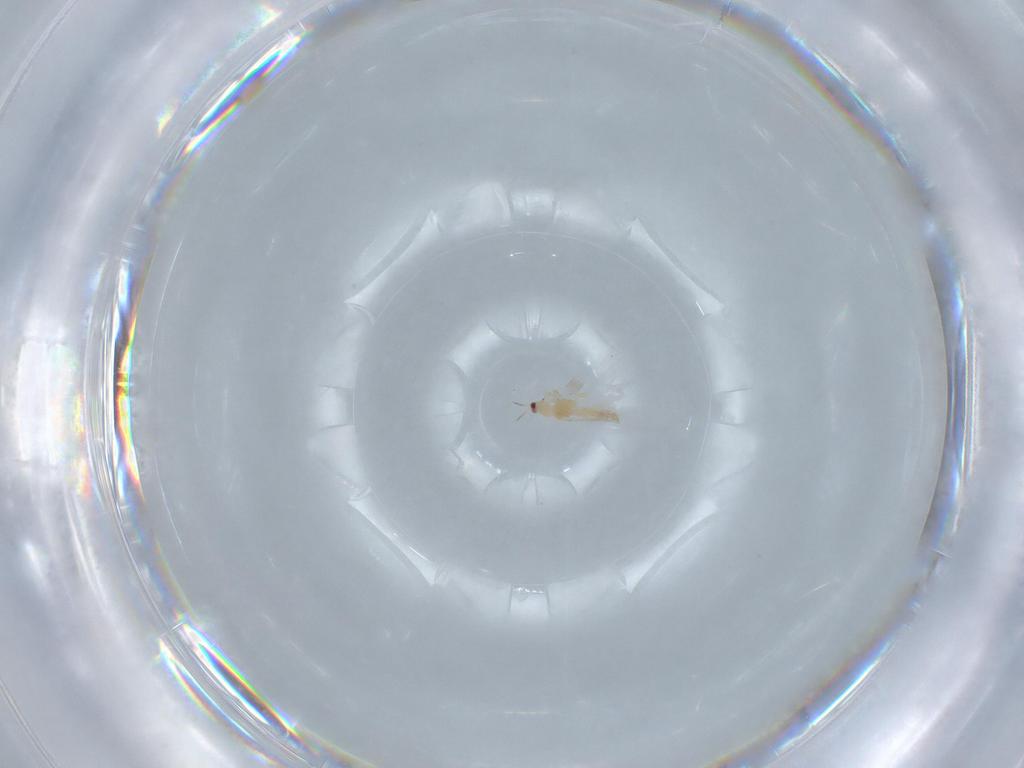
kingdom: Animalia
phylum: Arthropoda
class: Insecta
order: Thysanoptera
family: Thripidae
